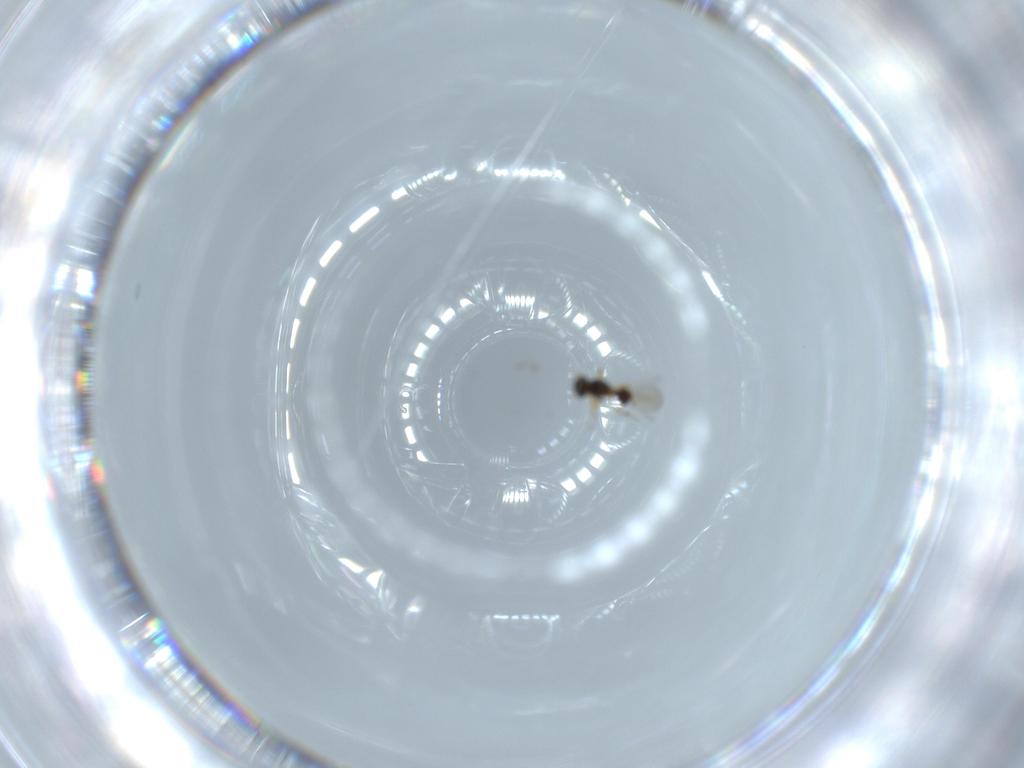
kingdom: Animalia
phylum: Arthropoda
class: Insecta
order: Hymenoptera
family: Platygastridae
